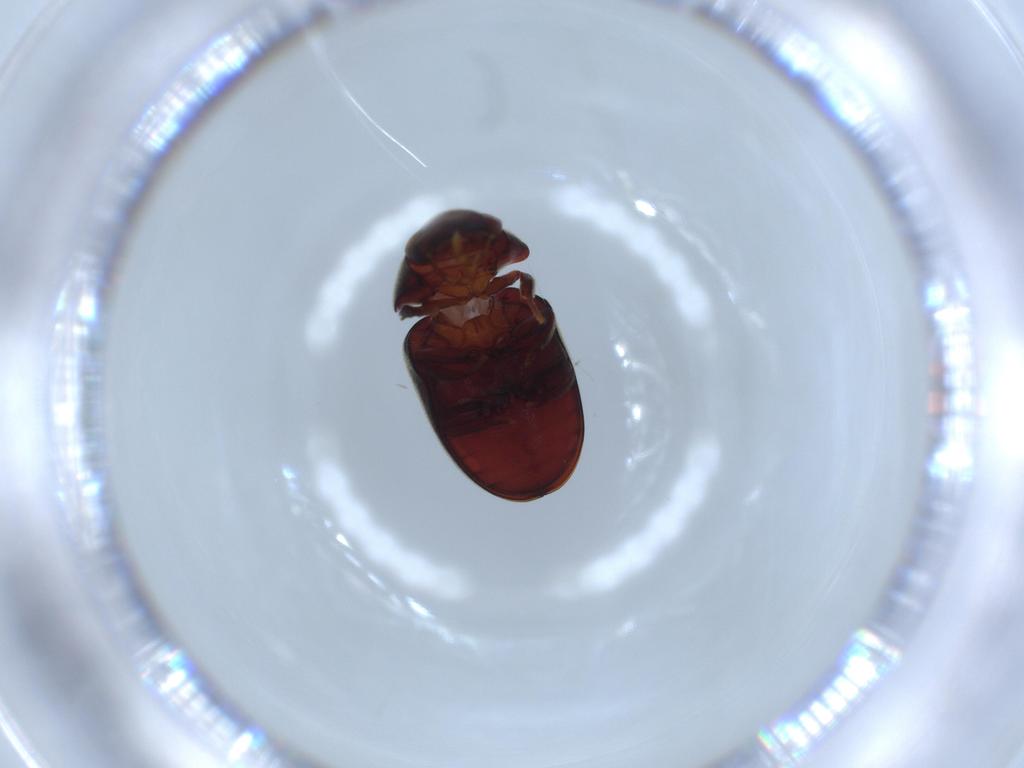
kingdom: Animalia
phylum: Arthropoda
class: Insecta
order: Coleoptera
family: Ptinidae
